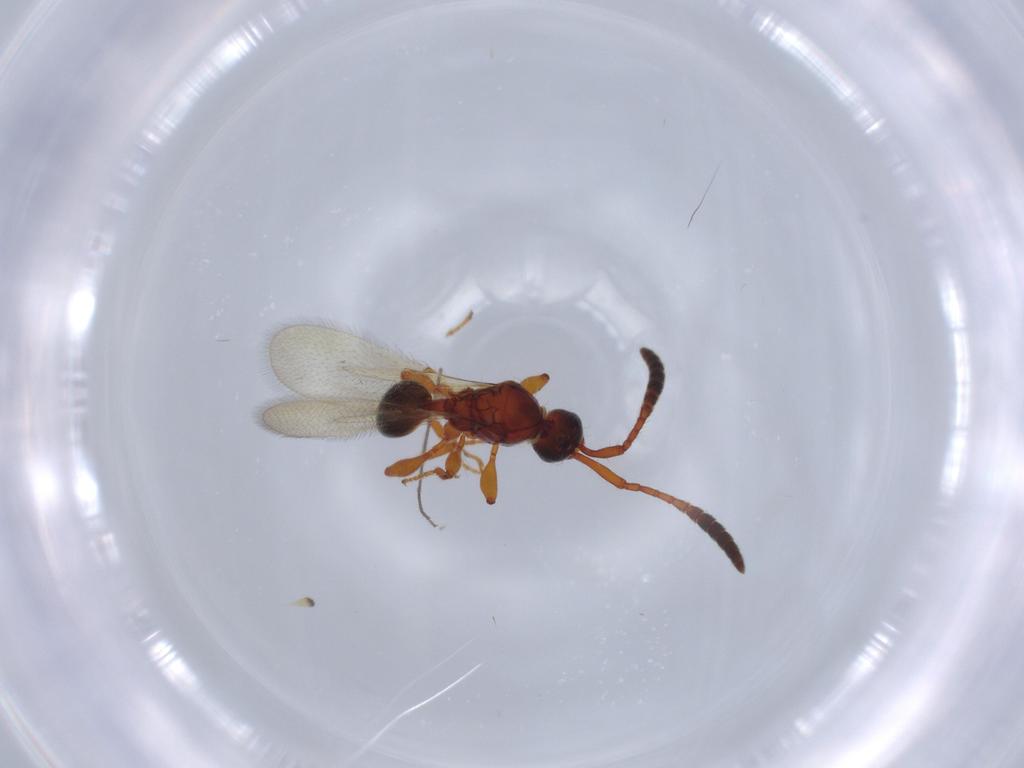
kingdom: Animalia
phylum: Arthropoda
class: Insecta
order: Hymenoptera
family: Diapriidae
